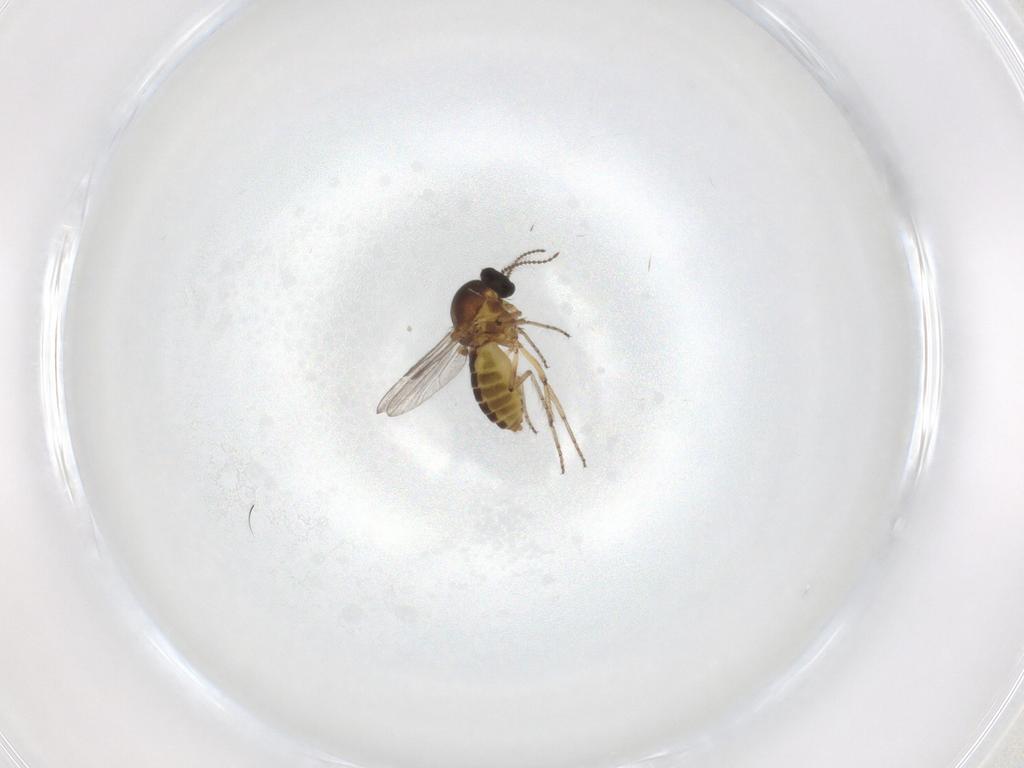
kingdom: Animalia
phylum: Arthropoda
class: Insecta
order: Diptera
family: Ceratopogonidae
